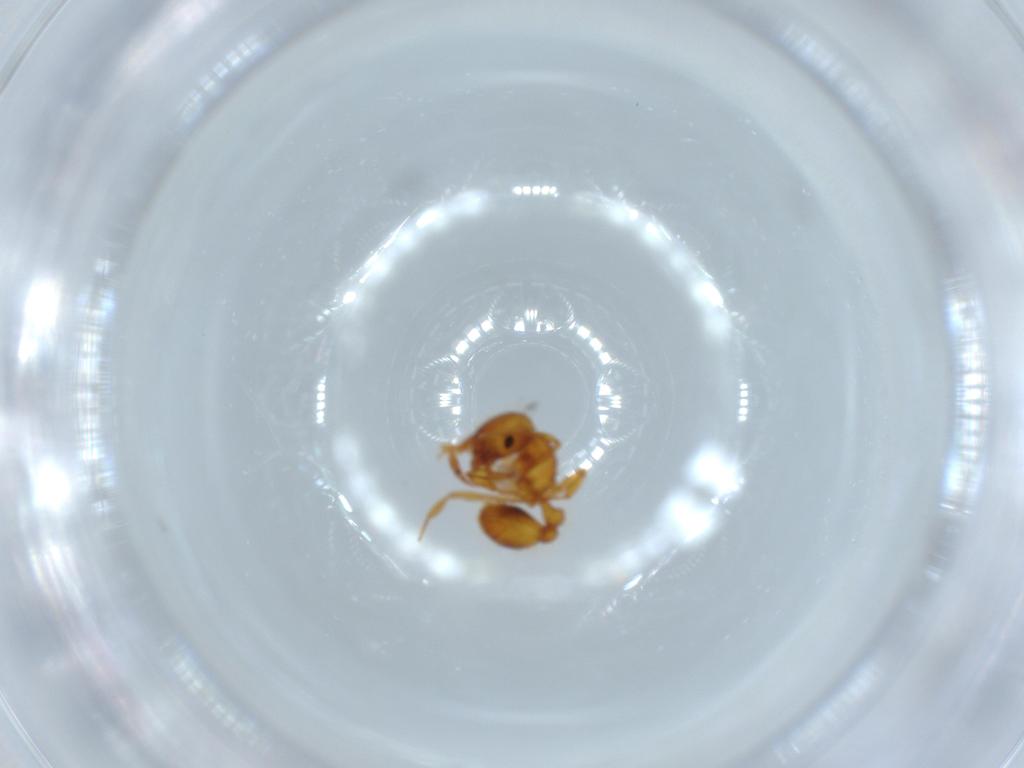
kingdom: Animalia
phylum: Arthropoda
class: Insecta
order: Hymenoptera
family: Formicidae
